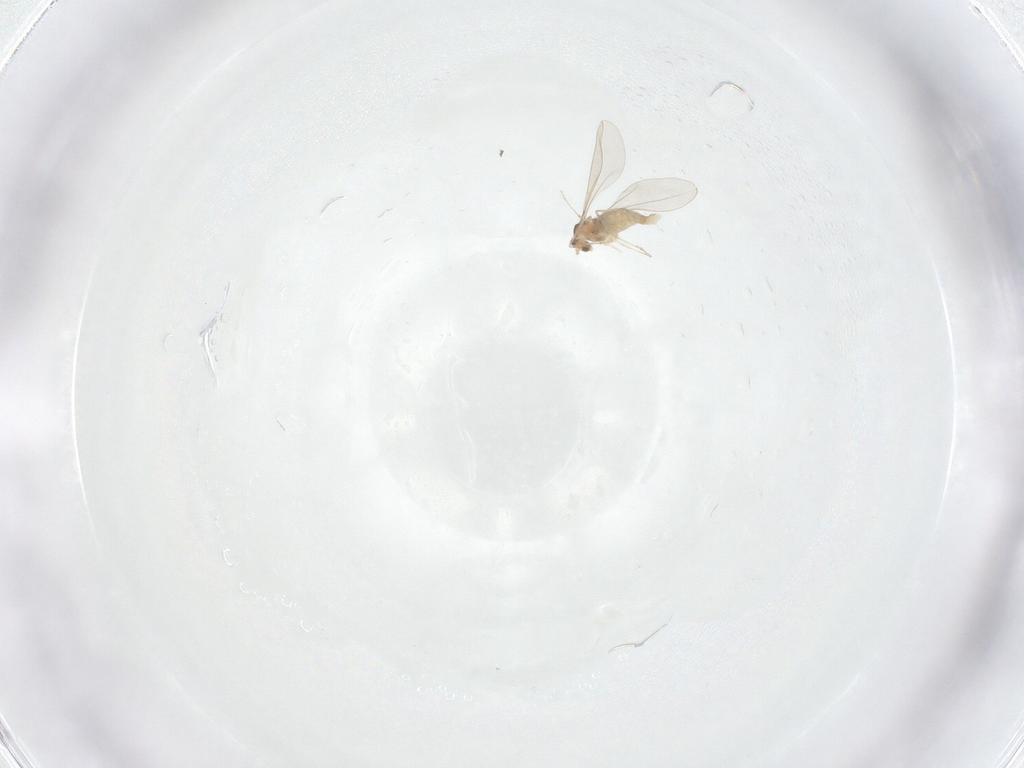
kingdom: Animalia
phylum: Arthropoda
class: Insecta
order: Diptera
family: Cecidomyiidae
